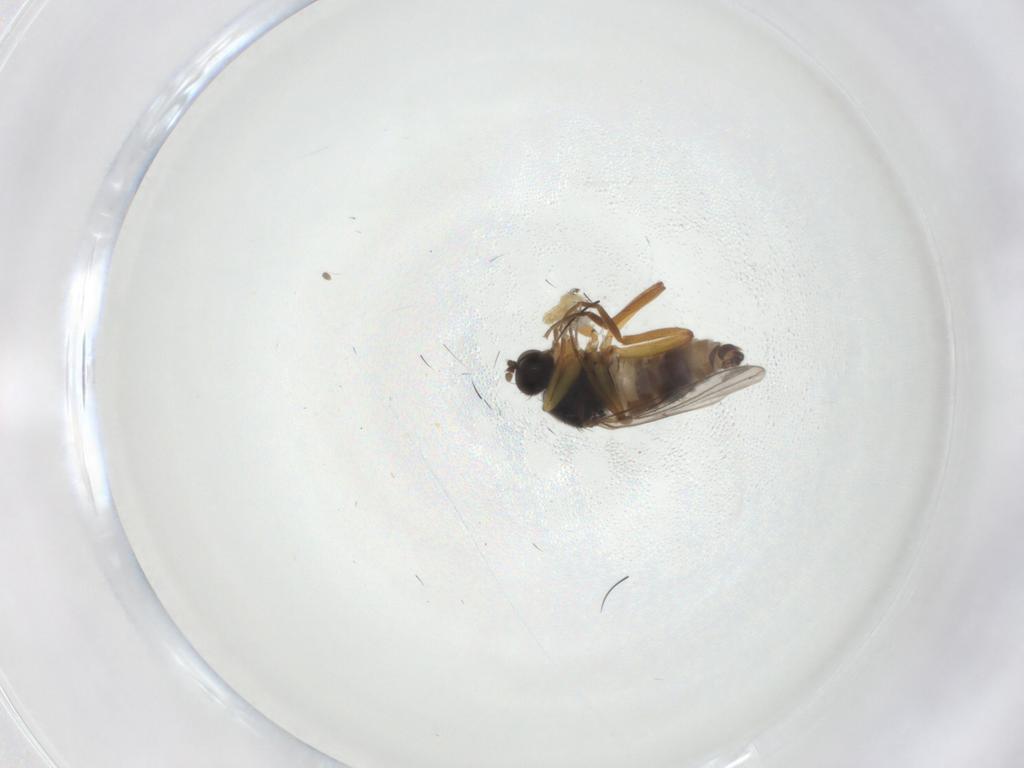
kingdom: Animalia
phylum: Arthropoda
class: Insecta
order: Diptera
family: Hybotidae
